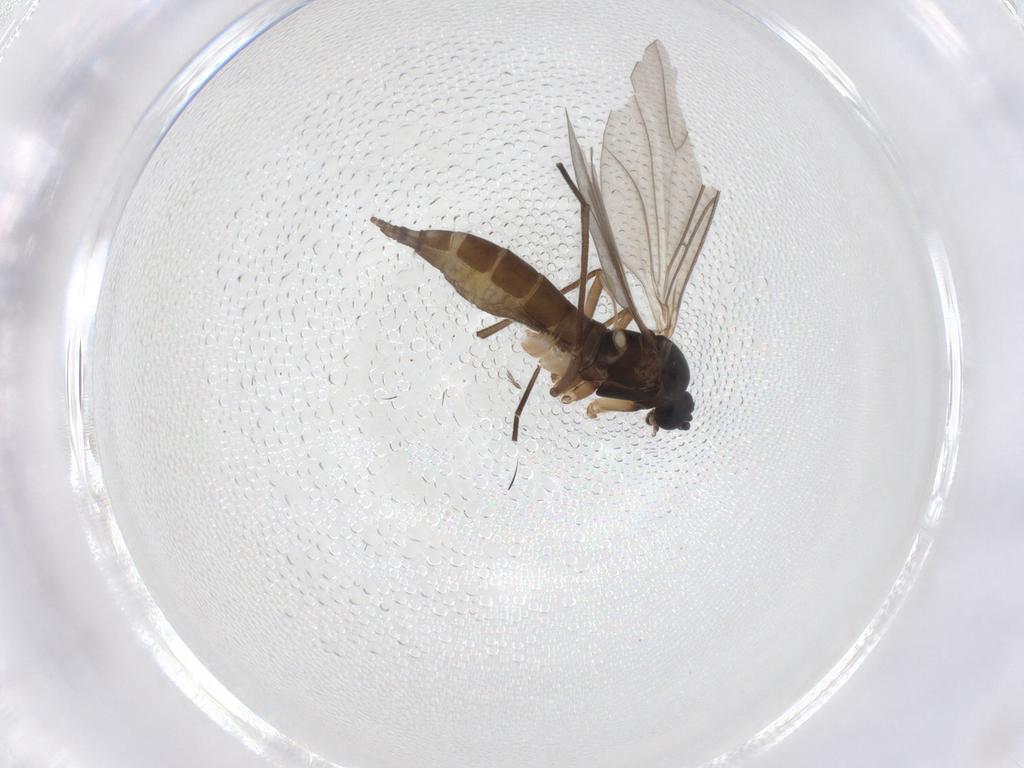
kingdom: Animalia
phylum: Arthropoda
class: Insecta
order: Diptera
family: Sciaridae
